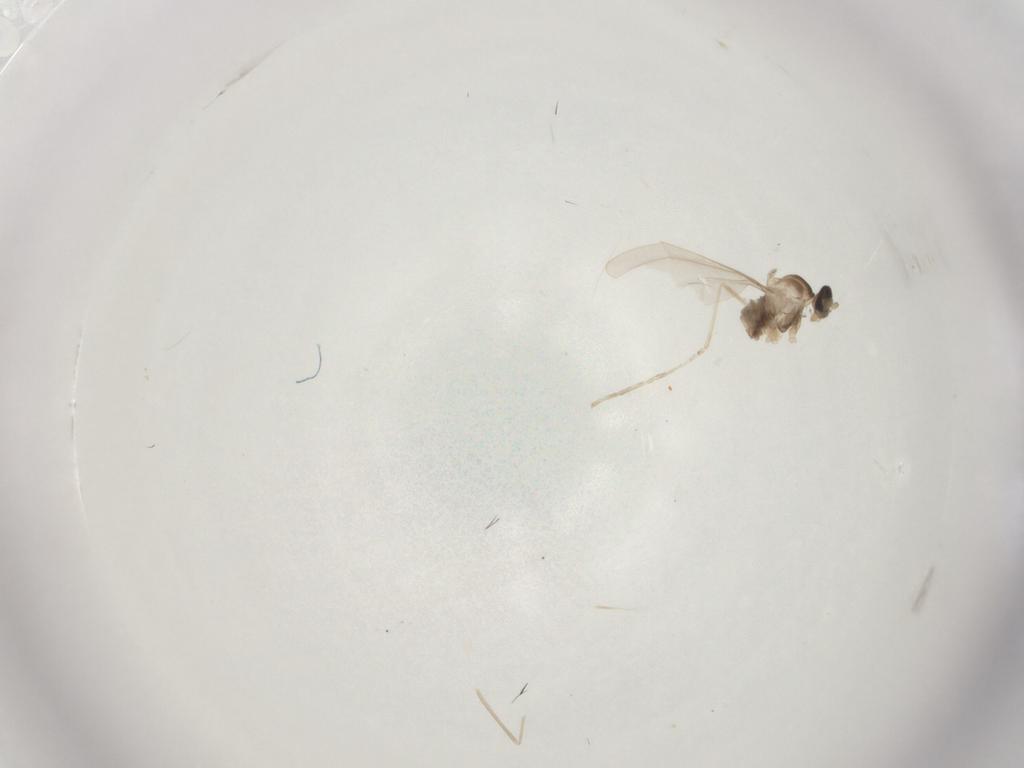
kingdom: Animalia
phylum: Arthropoda
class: Insecta
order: Diptera
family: Cecidomyiidae
